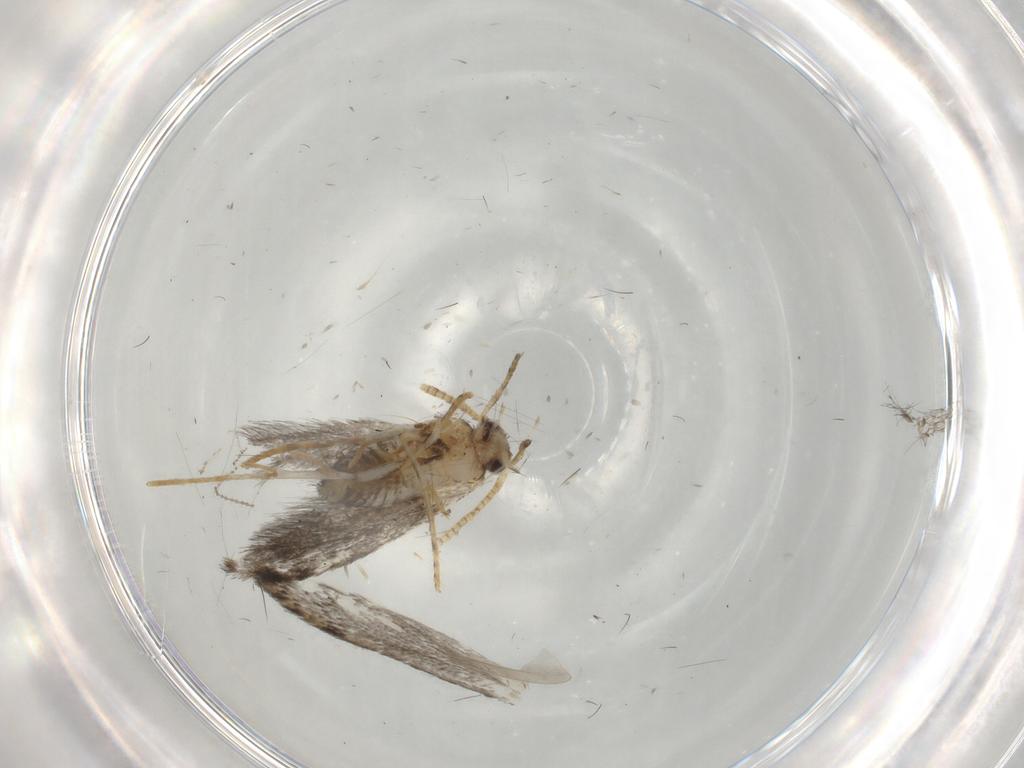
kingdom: Animalia
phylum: Arthropoda
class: Insecta
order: Lepidoptera
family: Tineidae
